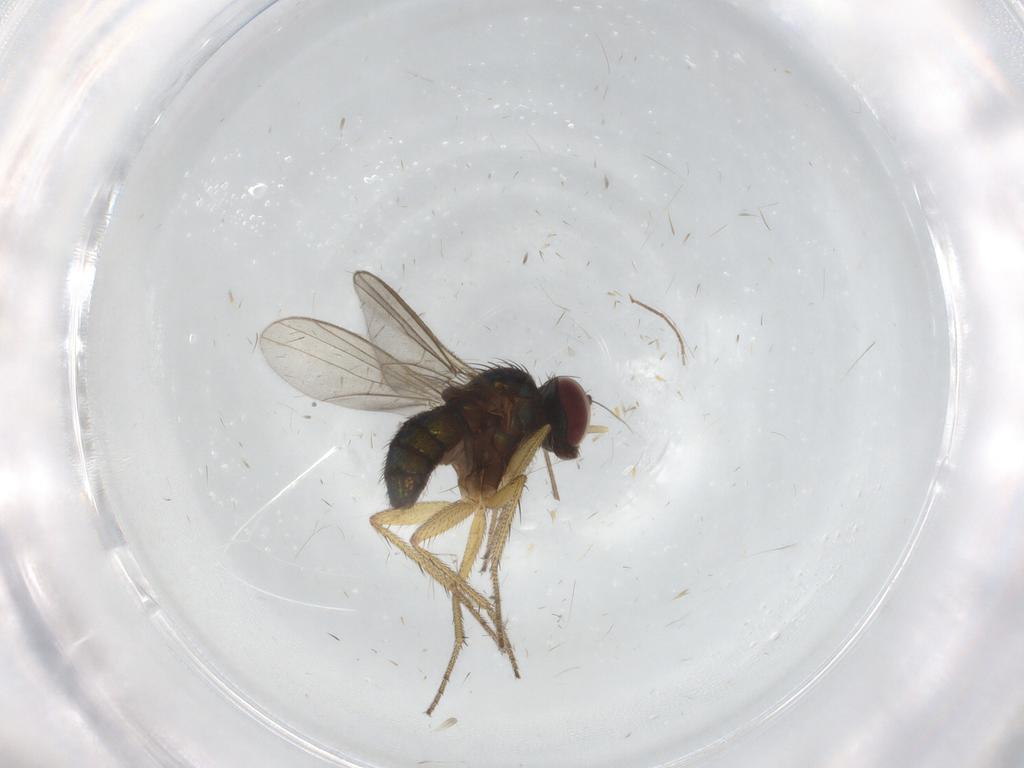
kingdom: Animalia
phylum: Arthropoda
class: Insecta
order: Diptera
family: Chironomidae
